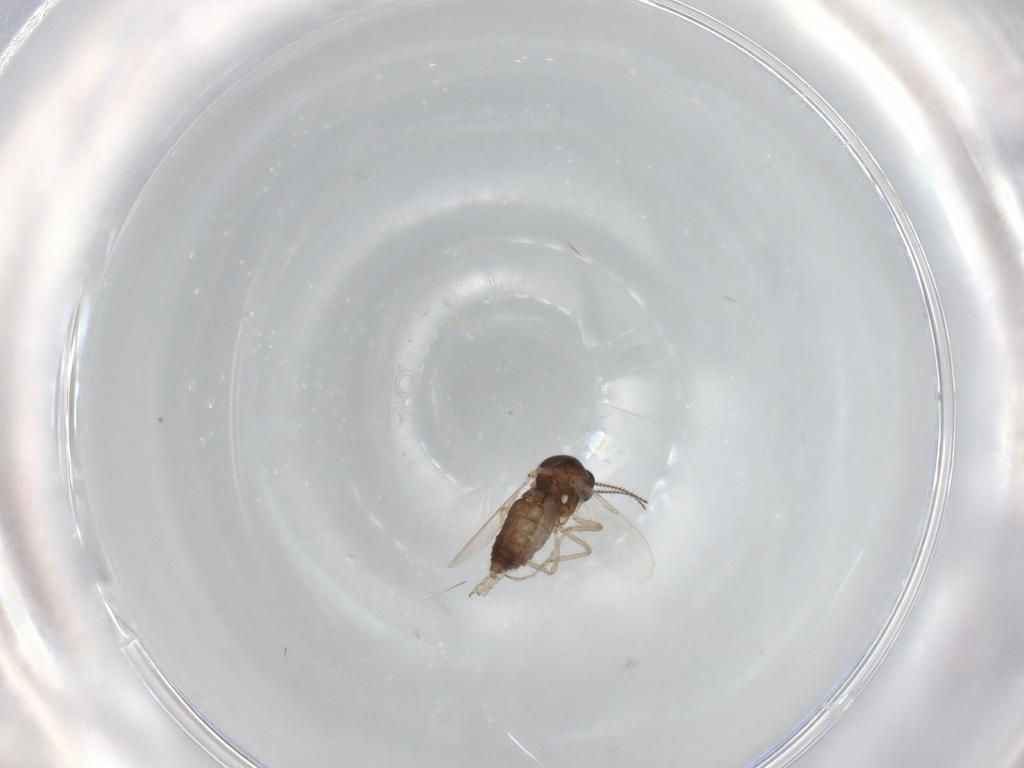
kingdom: Animalia
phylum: Arthropoda
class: Insecta
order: Diptera
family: Ceratopogonidae
